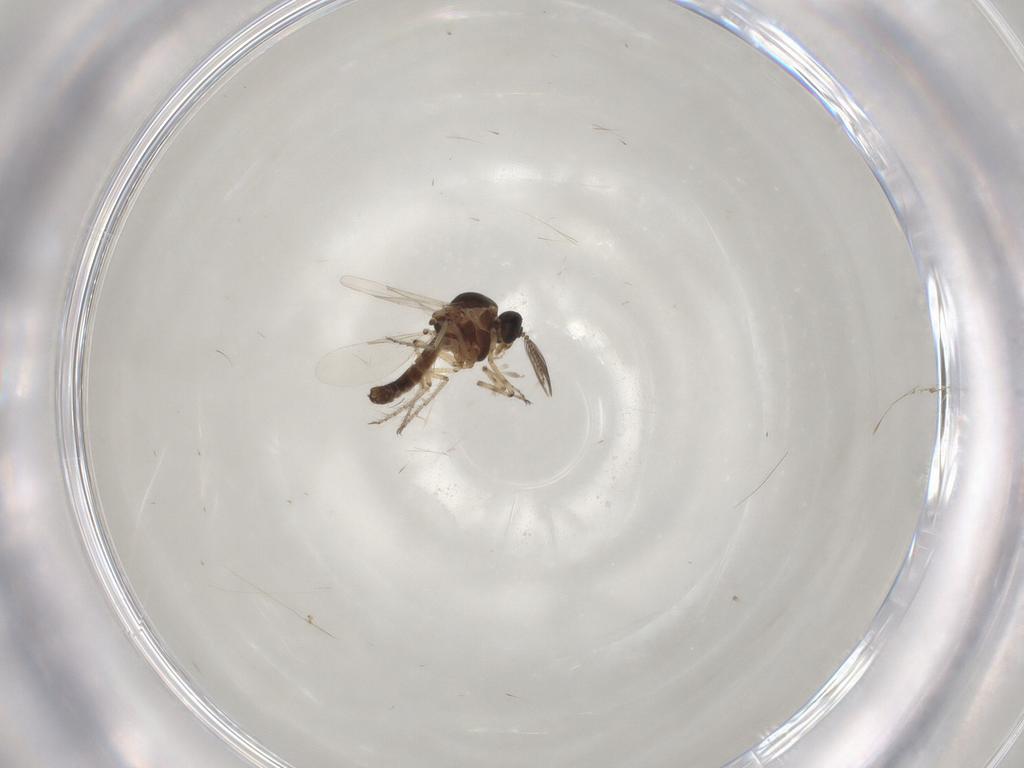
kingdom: Animalia
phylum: Arthropoda
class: Insecta
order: Diptera
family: Ceratopogonidae
